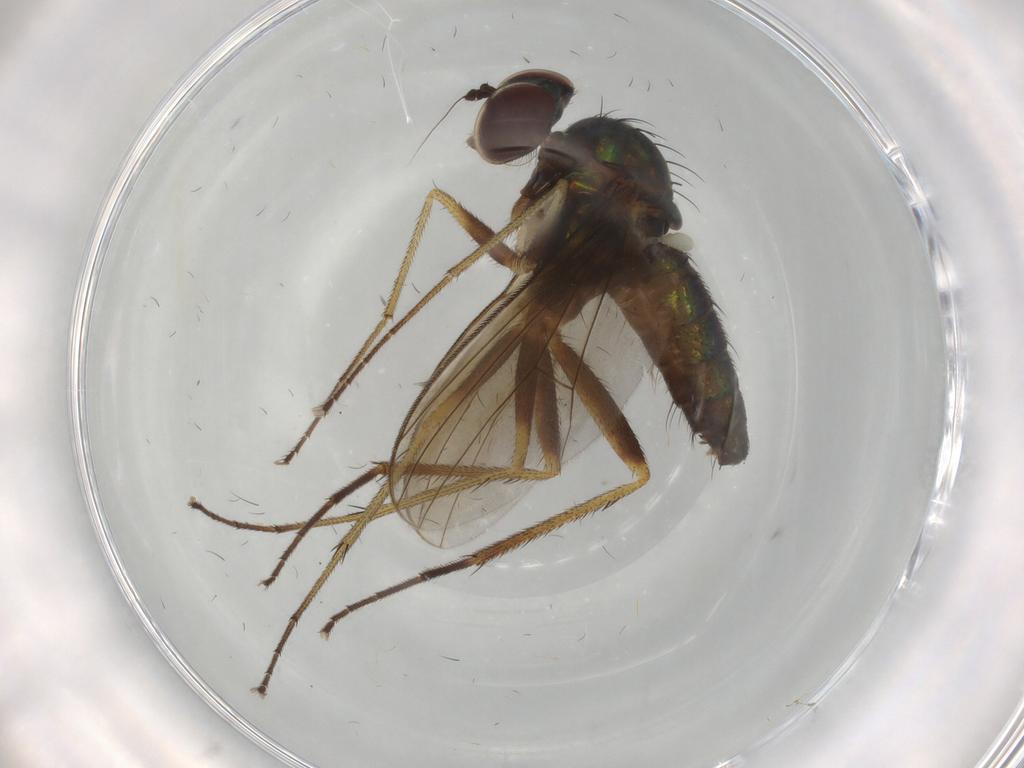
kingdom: Animalia
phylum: Arthropoda
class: Insecta
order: Diptera
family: Dolichopodidae
